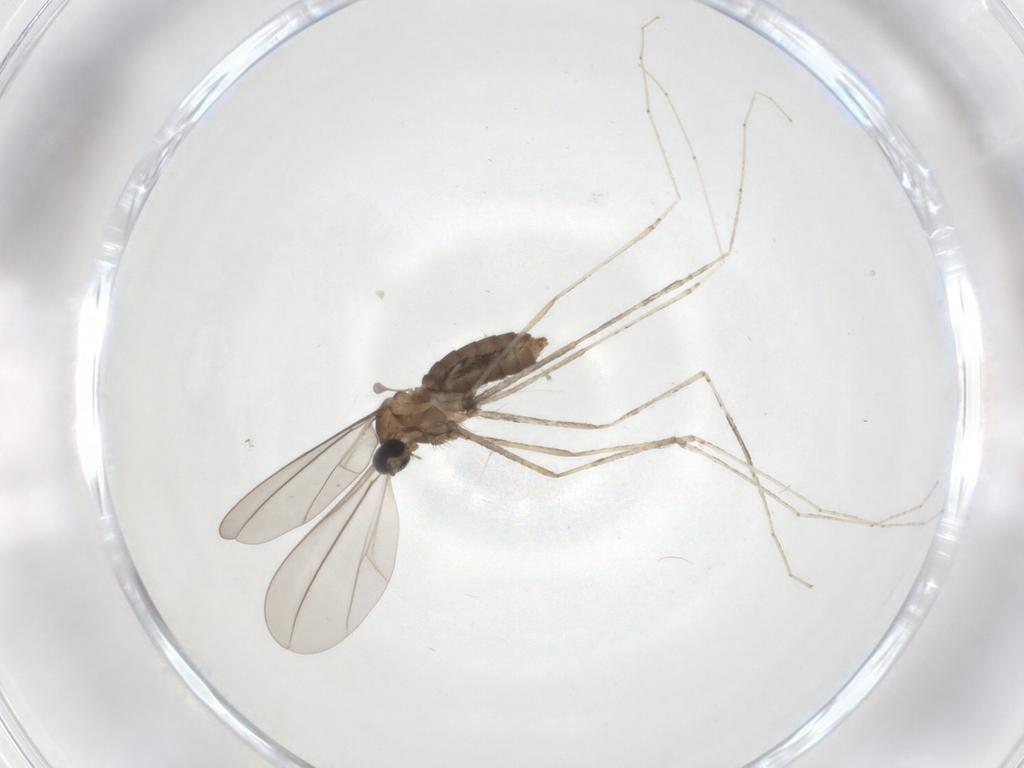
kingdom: Animalia
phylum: Arthropoda
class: Insecta
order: Diptera
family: Cecidomyiidae
